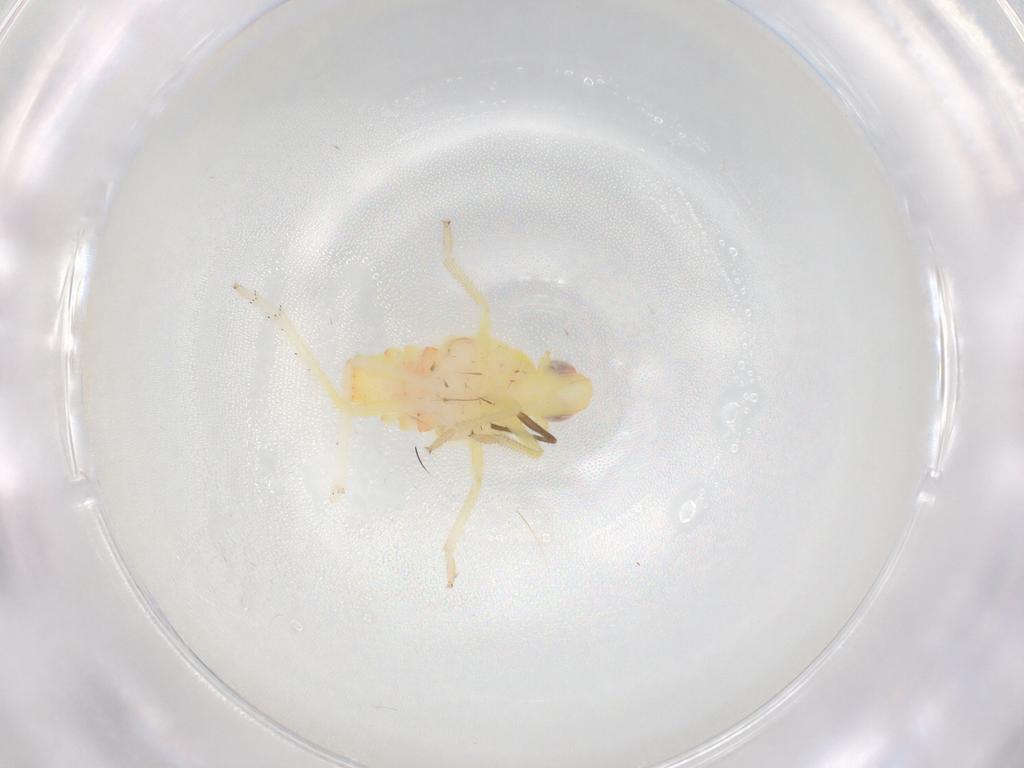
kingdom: Animalia
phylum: Arthropoda
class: Insecta
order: Hemiptera
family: Tropiduchidae
